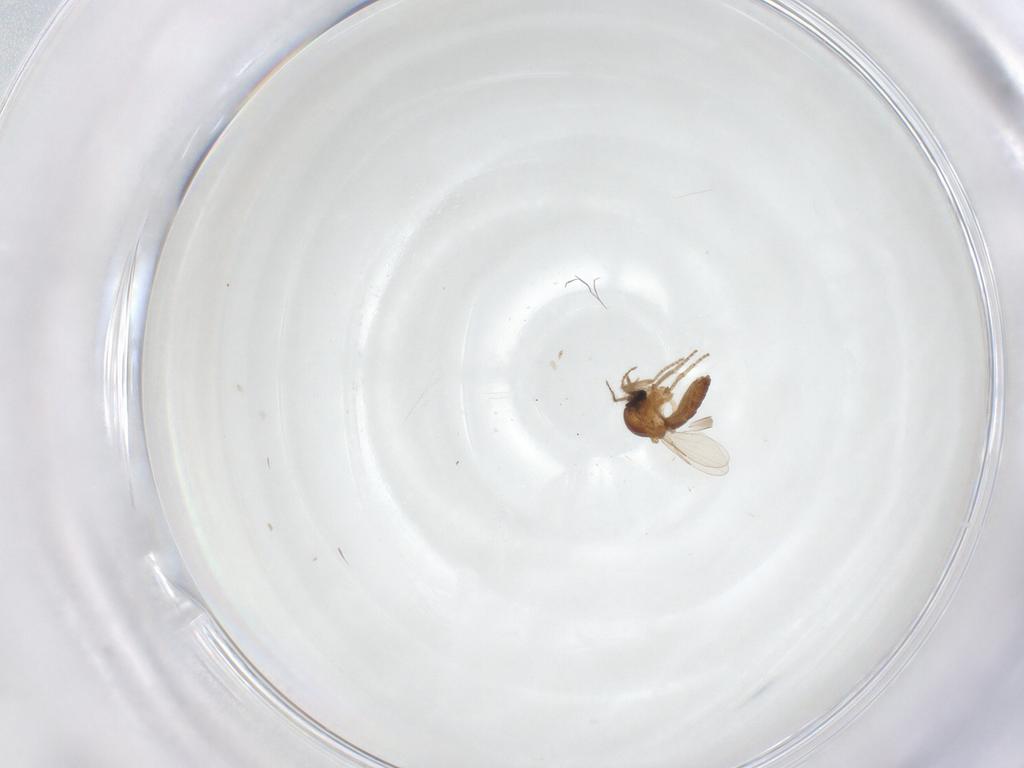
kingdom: Animalia
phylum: Arthropoda
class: Insecta
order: Diptera
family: Ceratopogonidae
